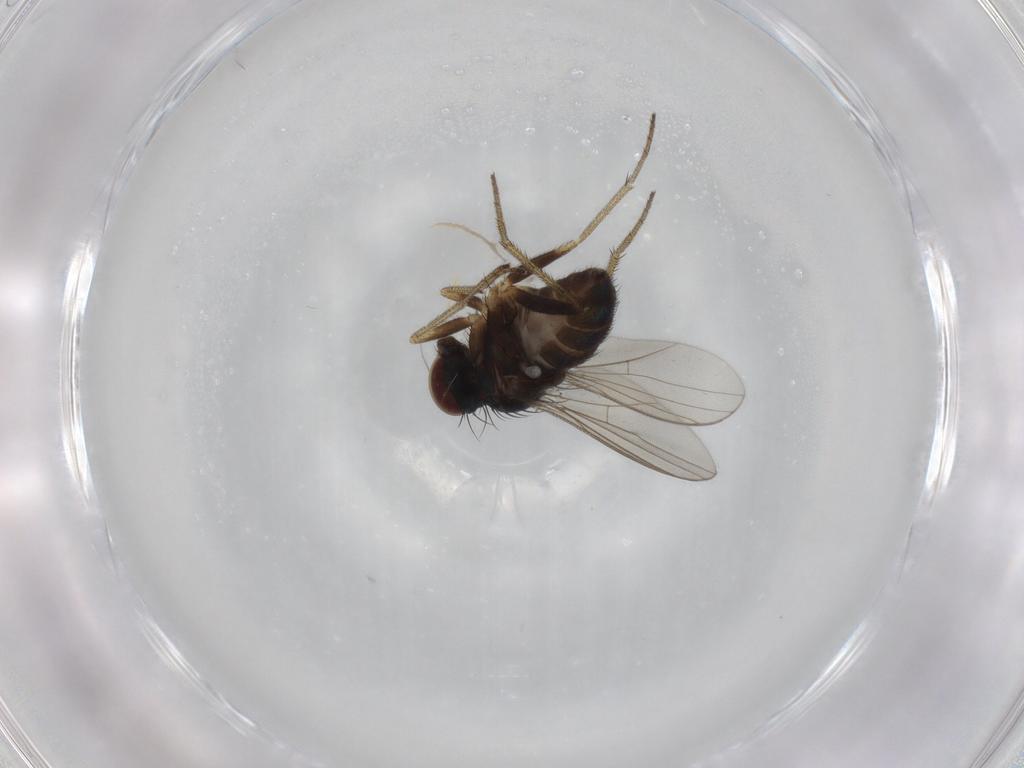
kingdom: Animalia
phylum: Arthropoda
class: Insecta
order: Diptera
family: Dolichopodidae
